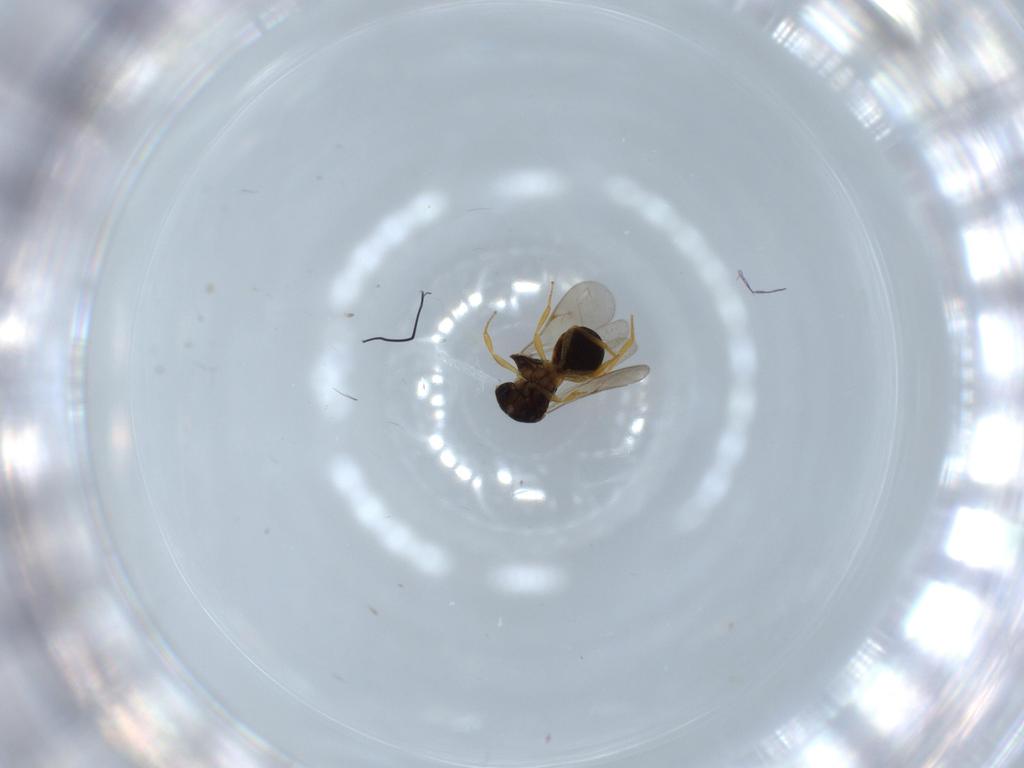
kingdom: Animalia
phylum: Arthropoda
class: Insecta
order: Hymenoptera
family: Scelionidae
